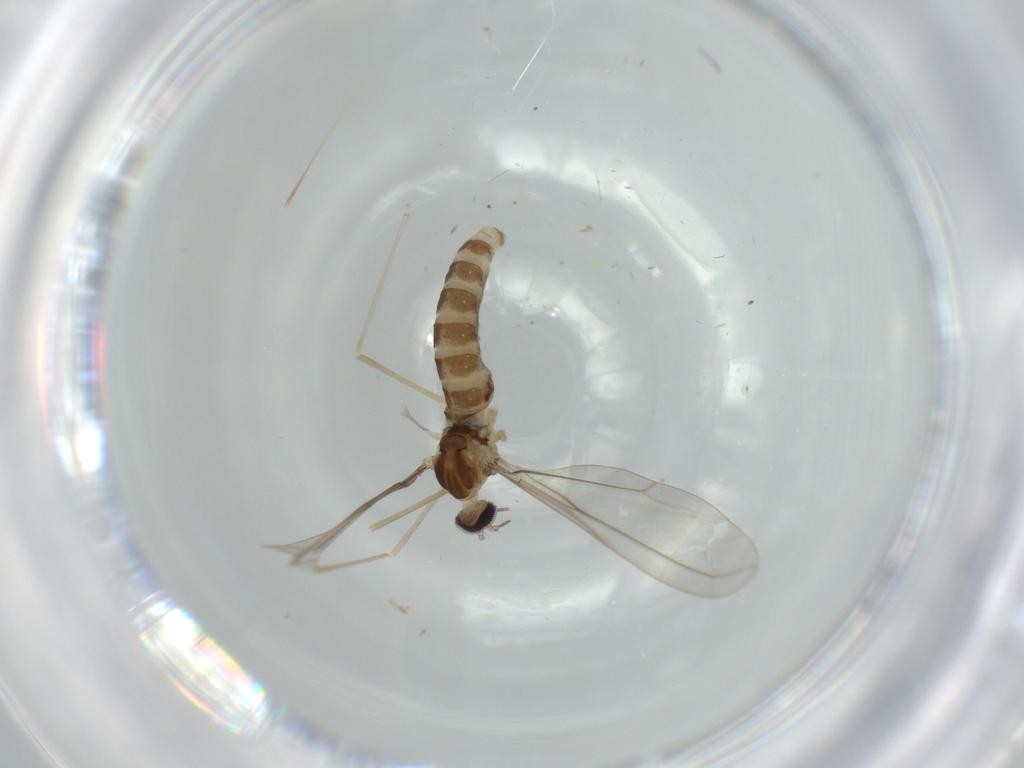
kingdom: Animalia
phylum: Arthropoda
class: Insecta
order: Diptera
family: Cecidomyiidae
